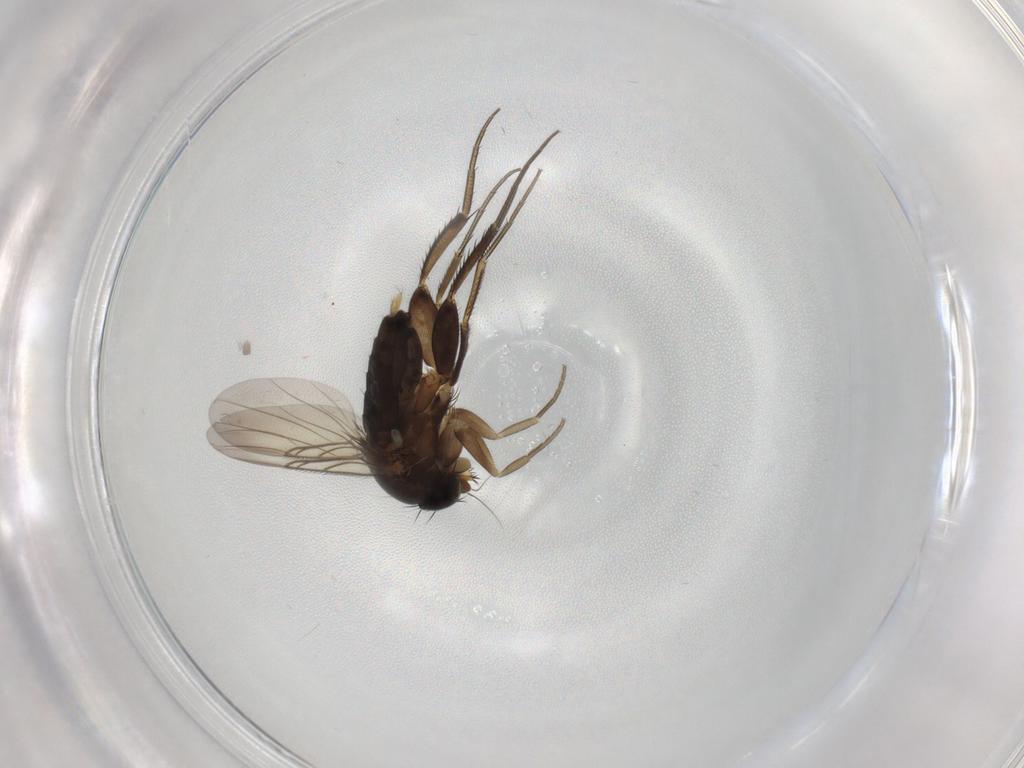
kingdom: Animalia
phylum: Arthropoda
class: Insecta
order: Diptera
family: Phoridae
